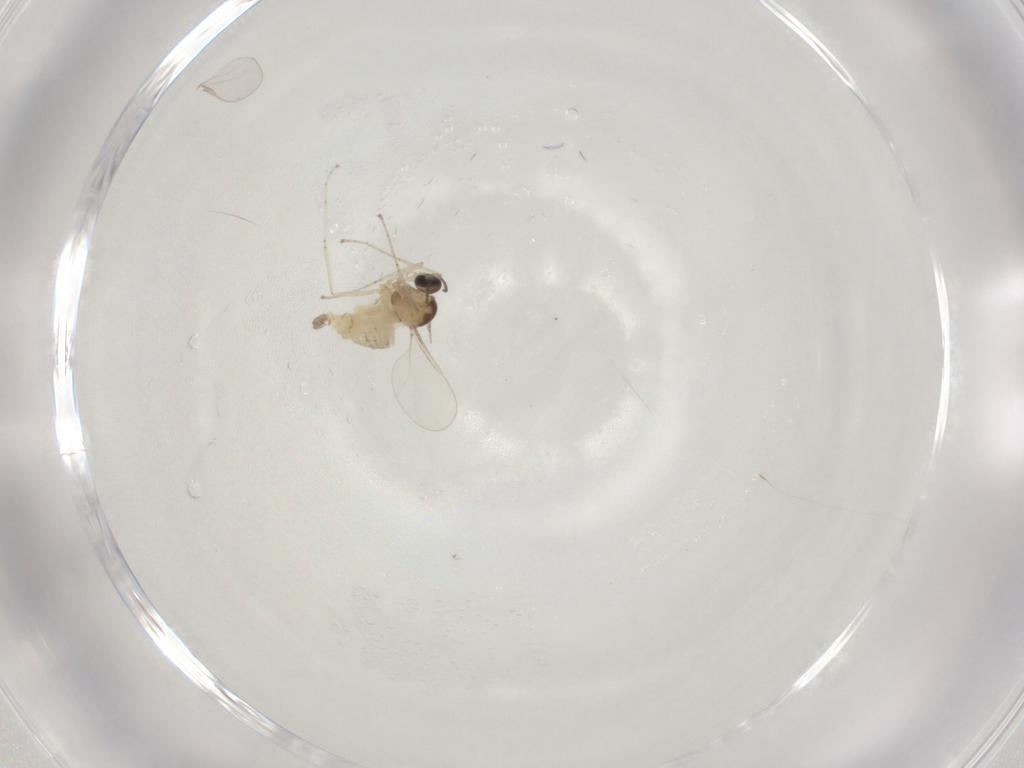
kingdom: Animalia
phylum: Arthropoda
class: Insecta
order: Diptera
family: Cecidomyiidae
